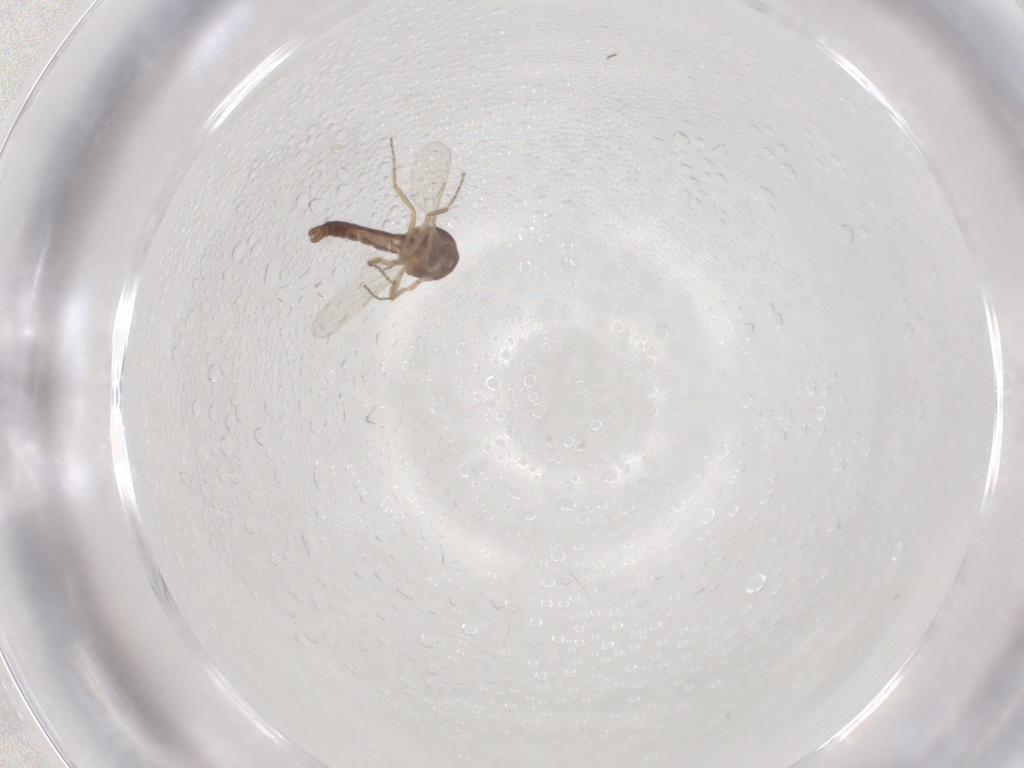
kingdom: Animalia
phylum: Arthropoda
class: Insecta
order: Diptera
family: Ceratopogonidae
